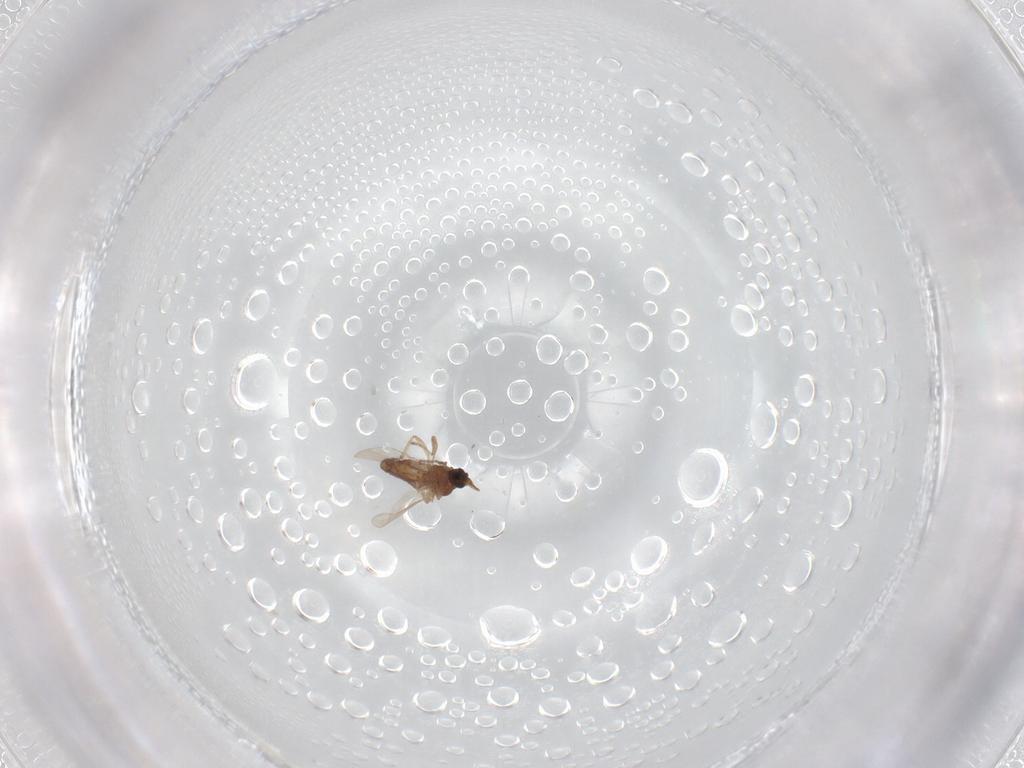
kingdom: Animalia
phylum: Arthropoda
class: Insecta
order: Diptera
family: Ceratopogonidae
